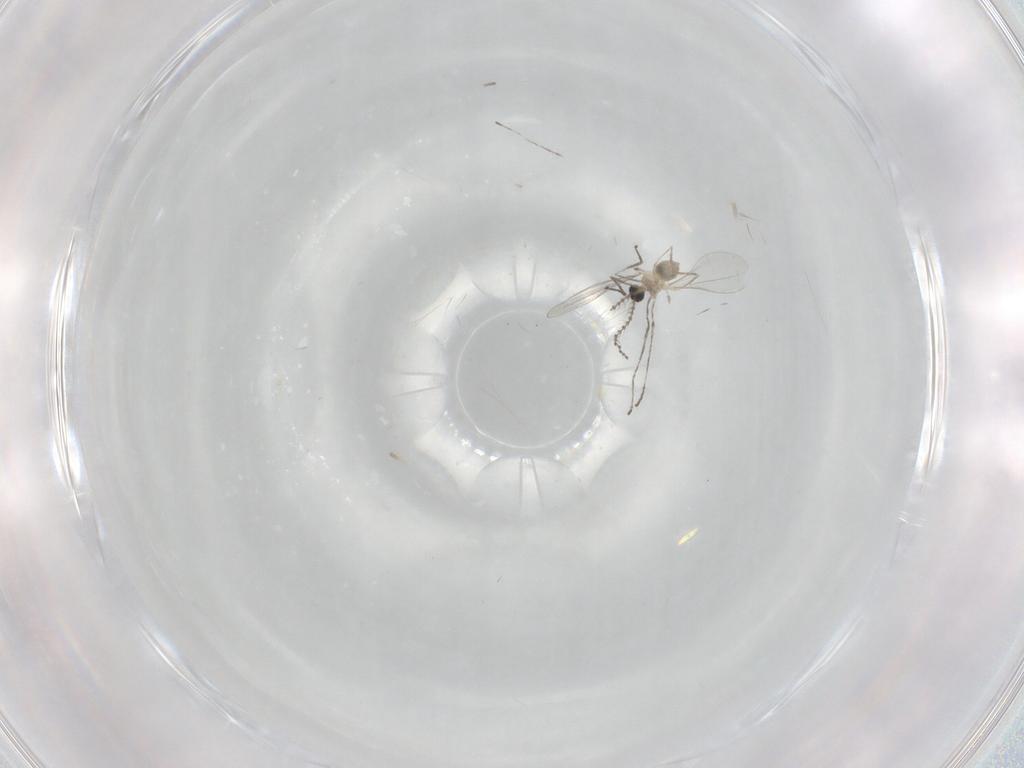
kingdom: Animalia
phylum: Arthropoda
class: Insecta
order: Diptera
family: Cecidomyiidae
